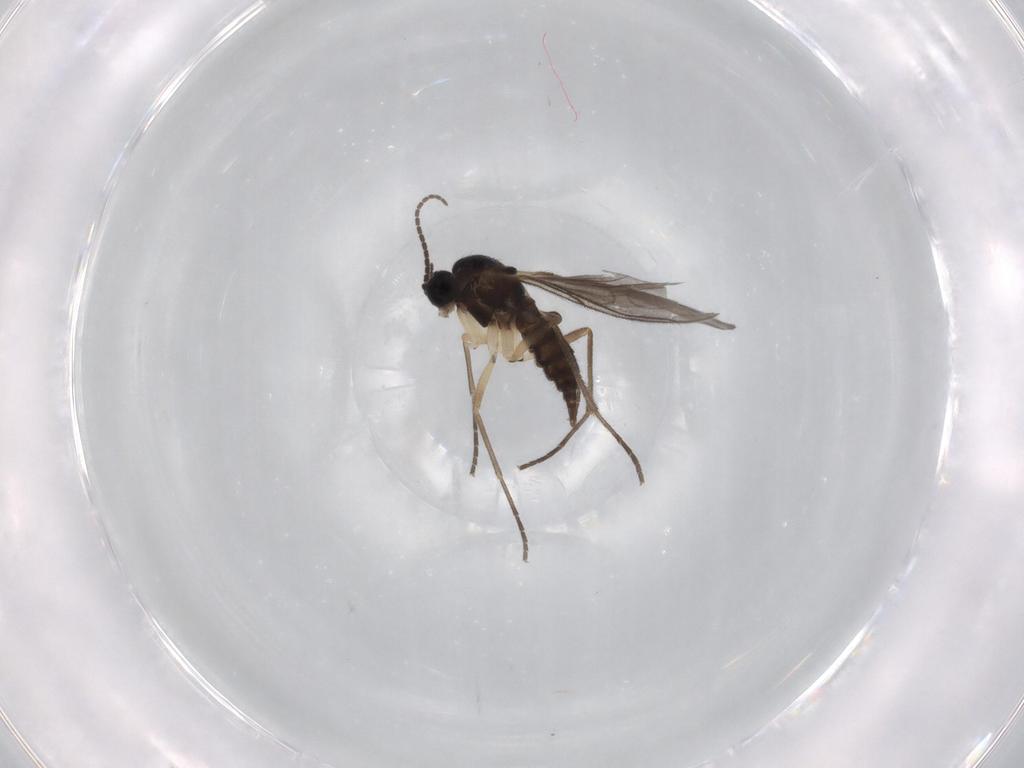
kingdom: Animalia
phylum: Arthropoda
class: Insecta
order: Diptera
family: Sciaridae
